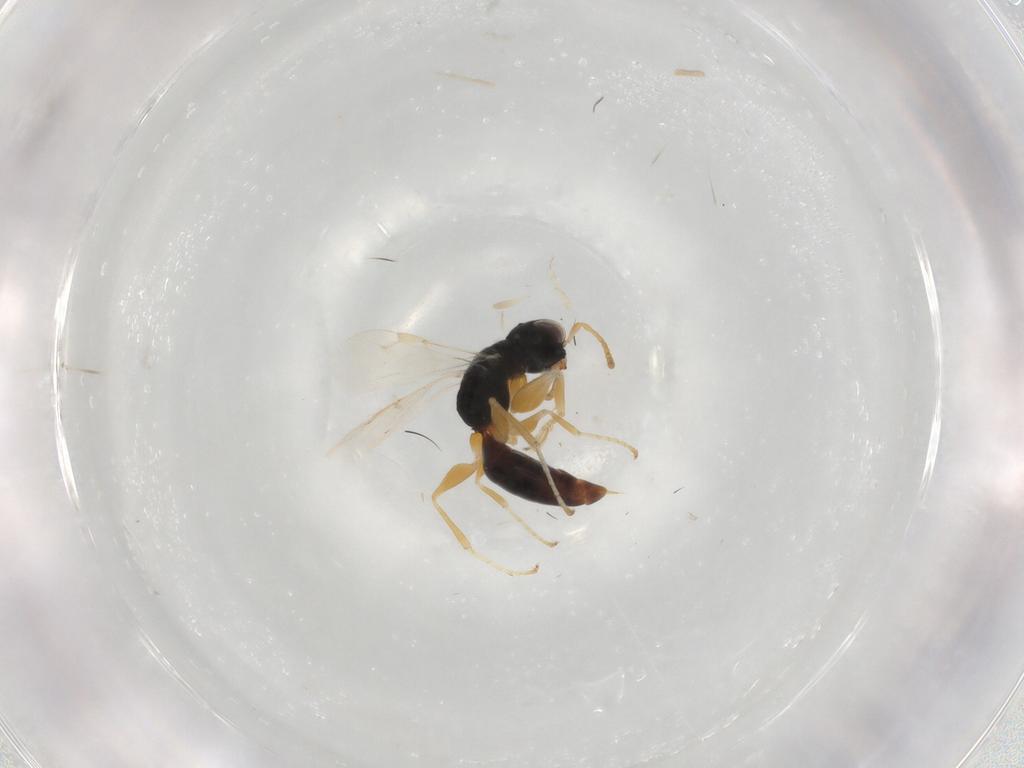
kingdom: Animalia
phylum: Arthropoda
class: Insecta
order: Hymenoptera
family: Dryinidae
